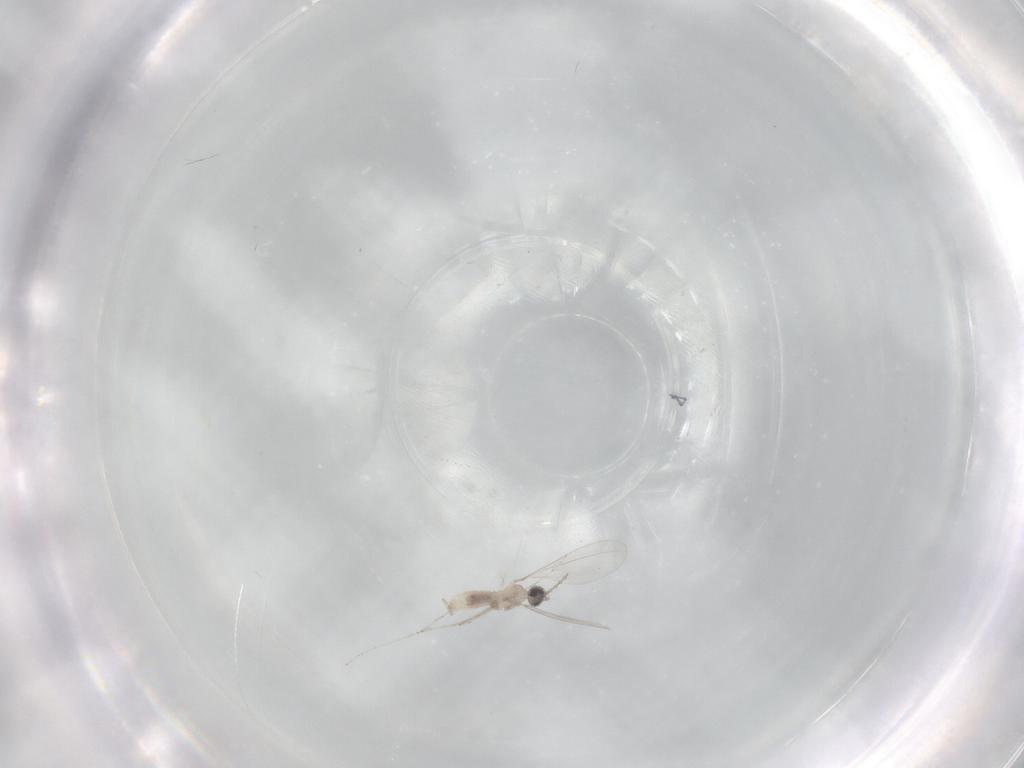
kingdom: Animalia
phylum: Arthropoda
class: Insecta
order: Diptera
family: Cecidomyiidae
